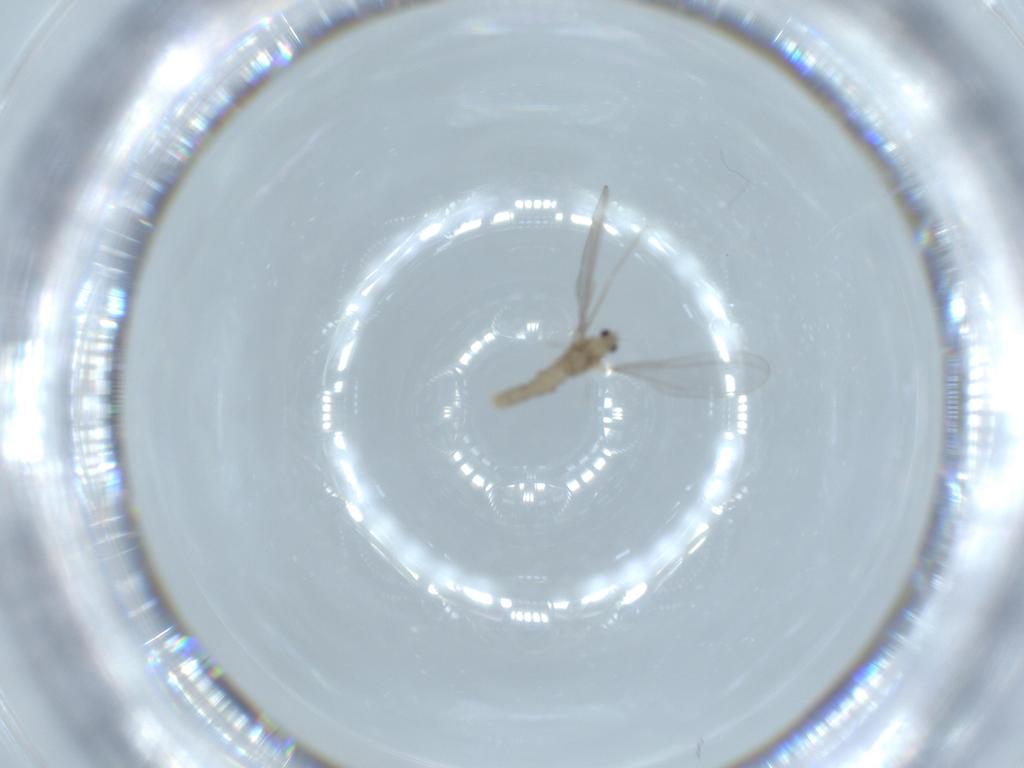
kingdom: Animalia
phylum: Arthropoda
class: Insecta
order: Diptera
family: Cecidomyiidae
